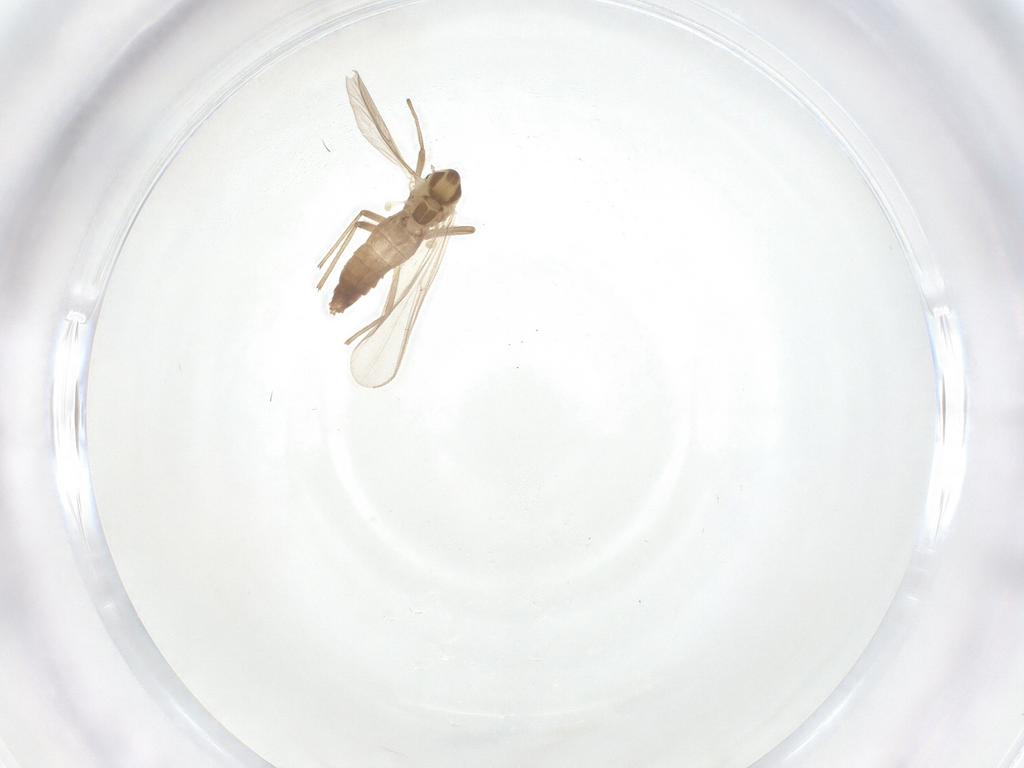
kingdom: Animalia
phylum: Arthropoda
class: Insecta
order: Diptera
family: Chironomidae
